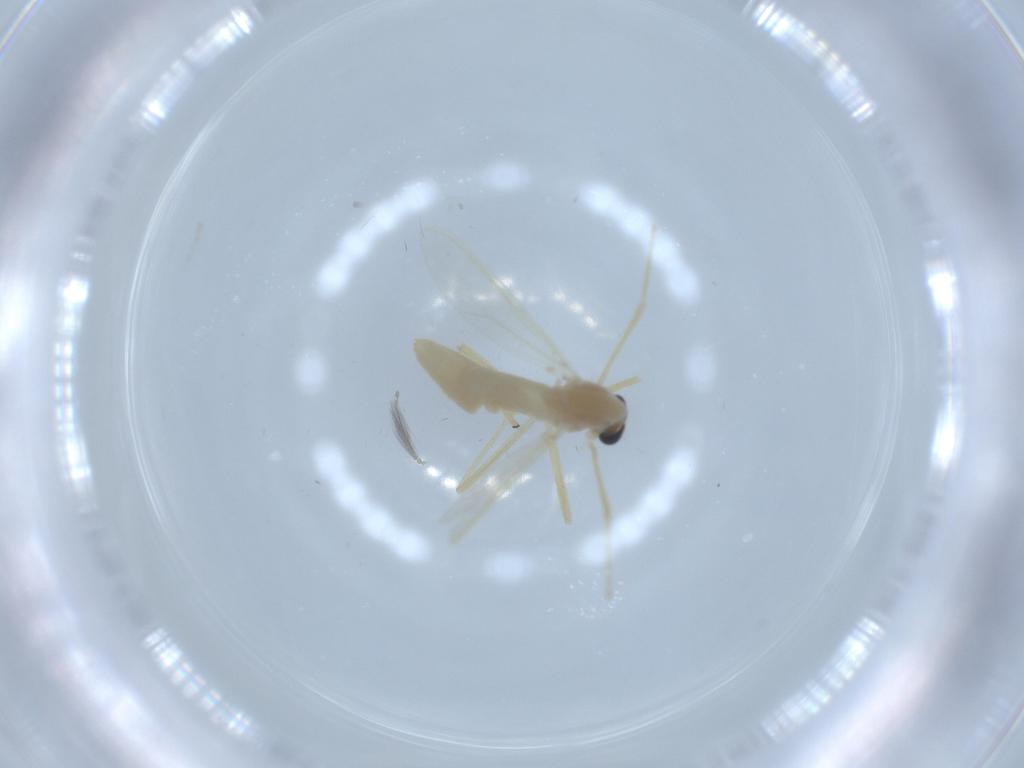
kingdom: Animalia
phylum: Arthropoda
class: Insecta
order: Diptera
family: Chironomidae
